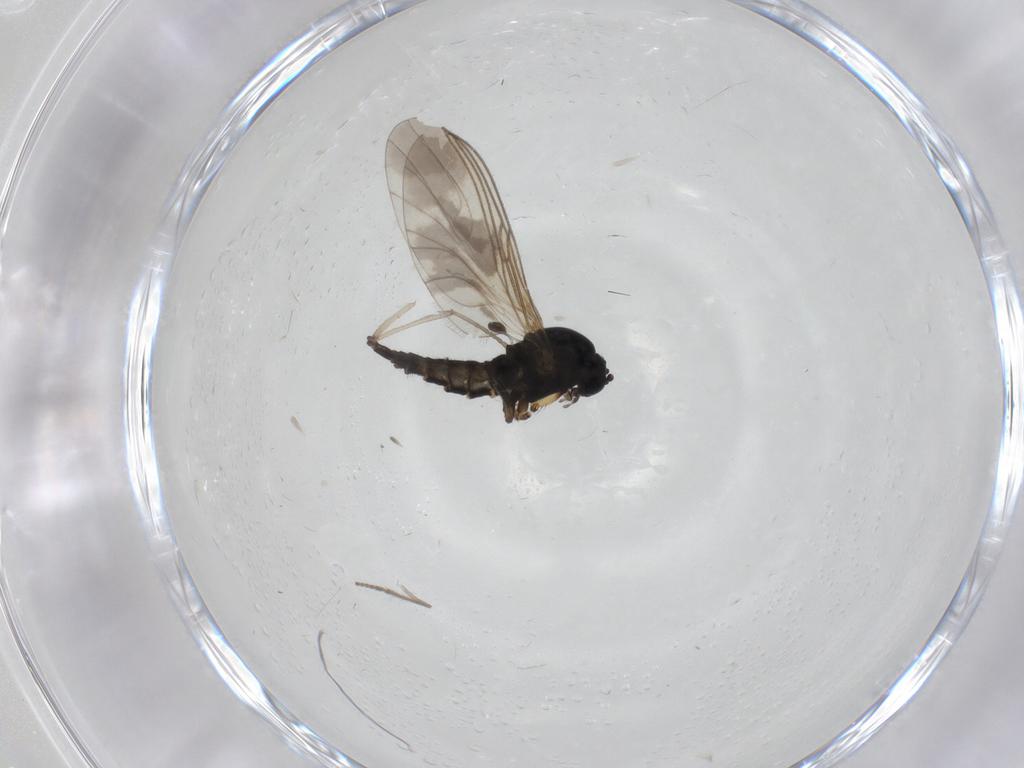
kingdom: Animalia
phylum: Arthropoda
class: Insecta
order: Diptera
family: Sciaridae
